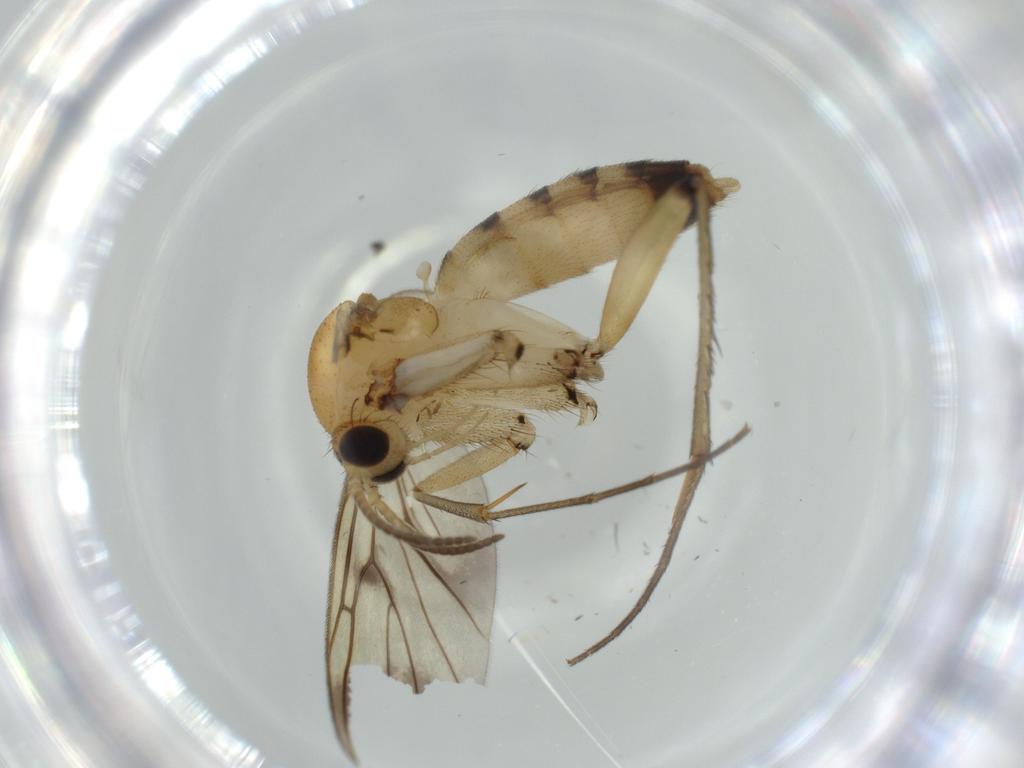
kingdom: Animalia
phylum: Arthropoda
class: Insecta
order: Diptera
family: Mycetophilidae
